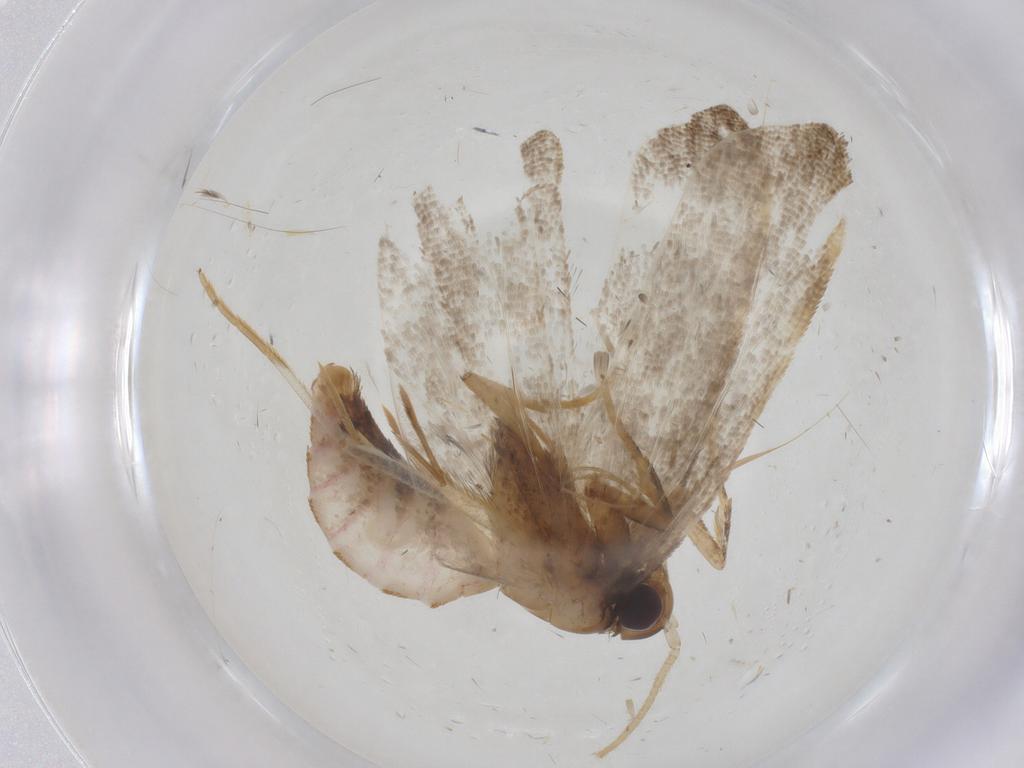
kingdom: Animalia
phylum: Arthropoda
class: Insecta
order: Lepidoptera
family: Lecithoceridae
